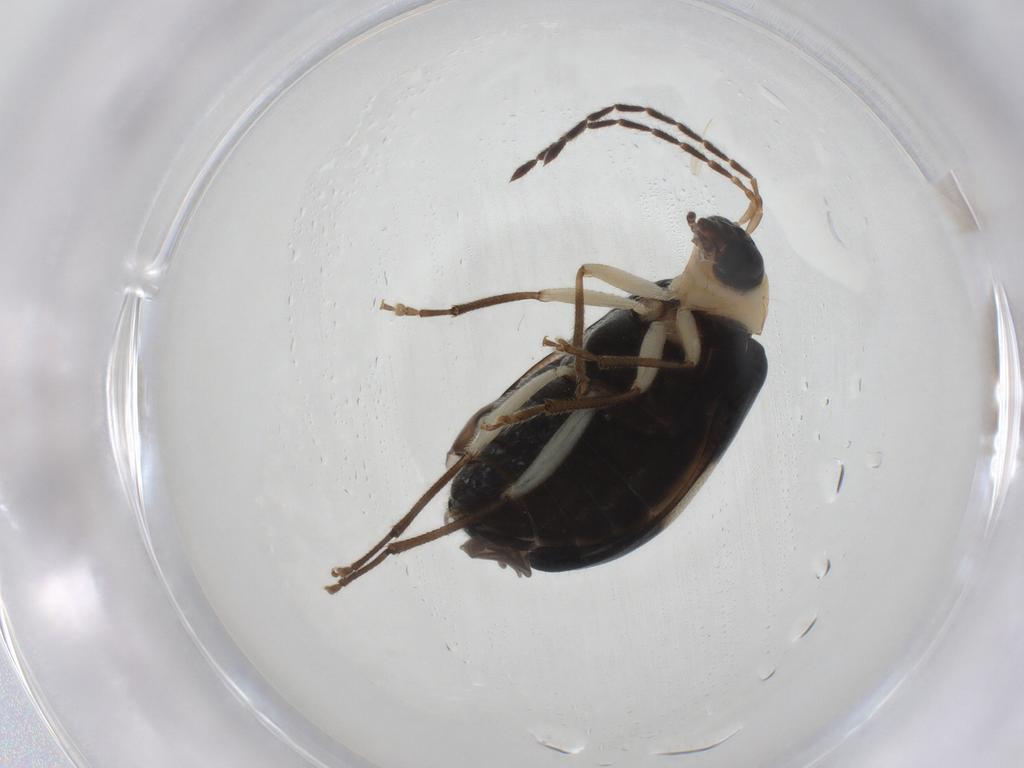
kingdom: Animalia
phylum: Arthropoda
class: Insecta
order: Coleoptera
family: Chrysomelidae
